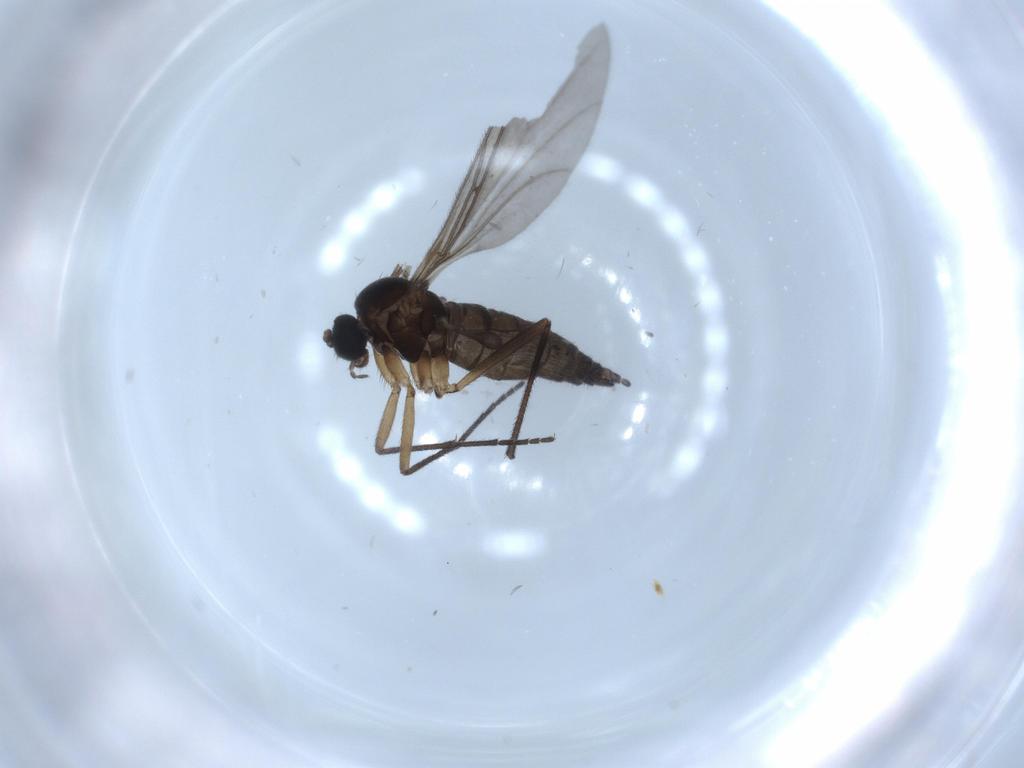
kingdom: Animalia
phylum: Arthropoda
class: Insecta
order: Diptera
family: Sciaridae
